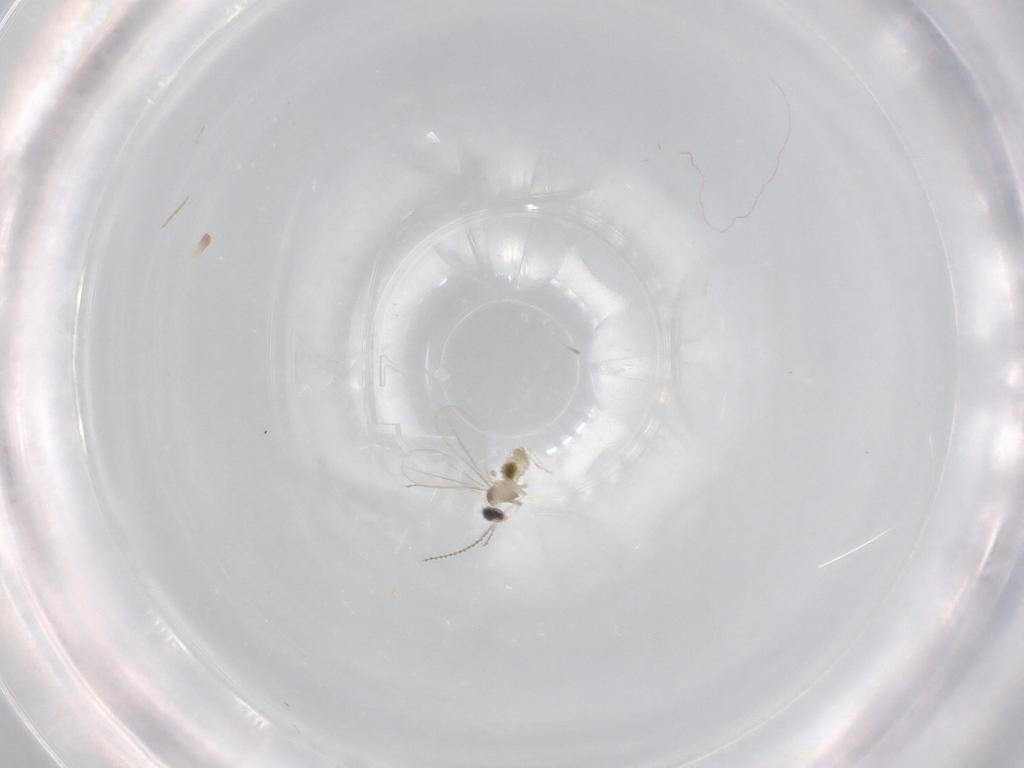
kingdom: Animalia
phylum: Arthropoda
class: Insecta
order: Diptera
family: Cecidomyiidae
